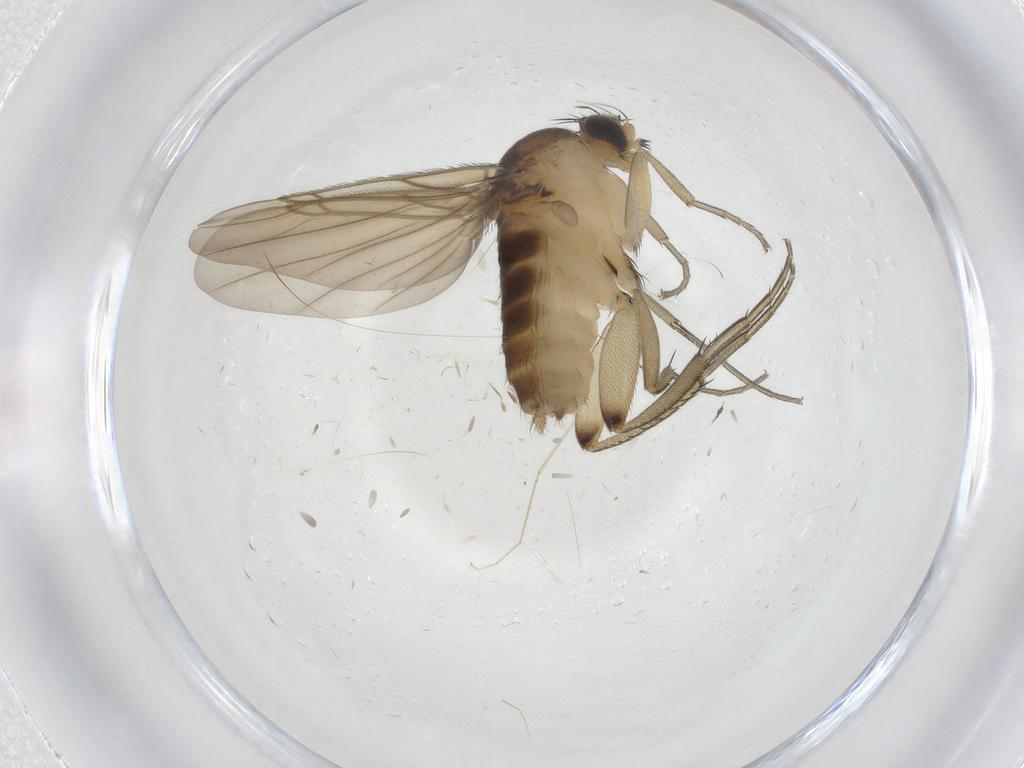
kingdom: Animalia
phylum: Arthropoda
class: Insecta
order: Diptera
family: Phoridae
